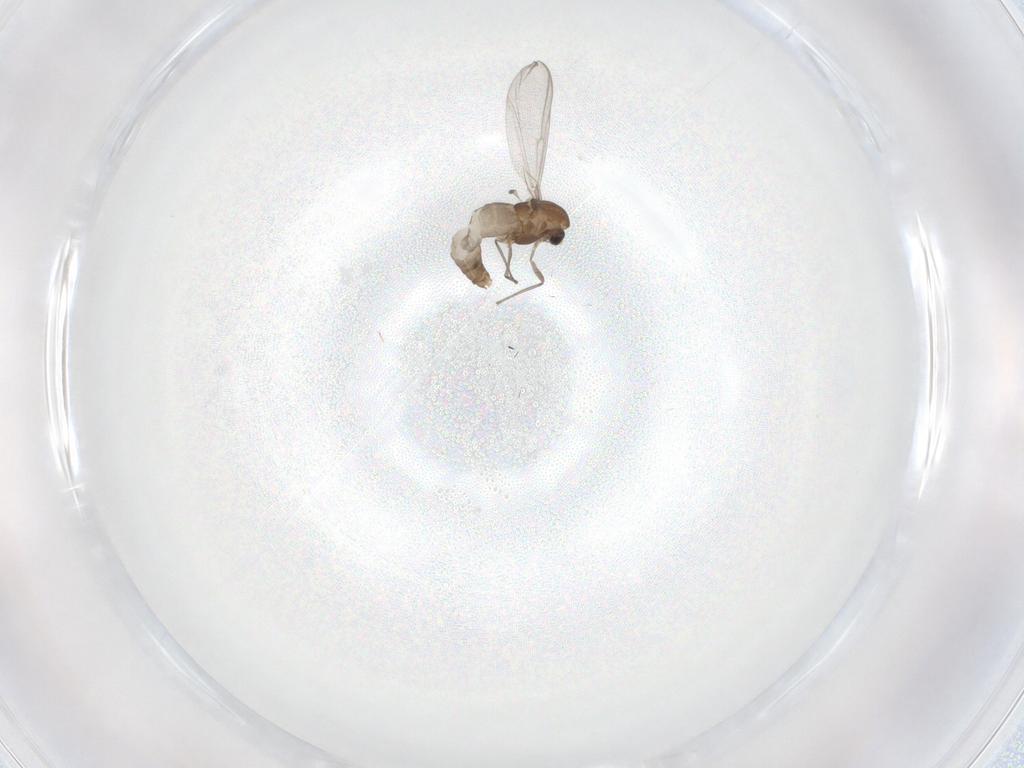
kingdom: Animalia
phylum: Arthropoda
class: Insecta
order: Diptera
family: Chironomidae
